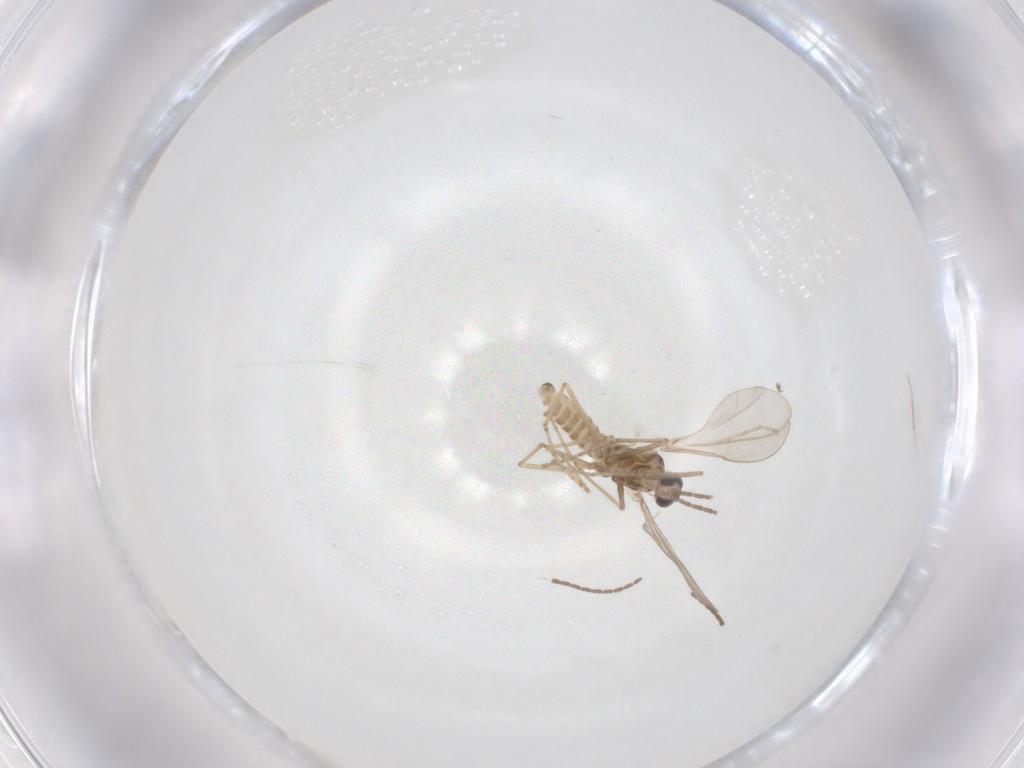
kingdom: Animalia
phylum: Arthropoda
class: Insecta
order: Diptera
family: Cecidomyiidae
